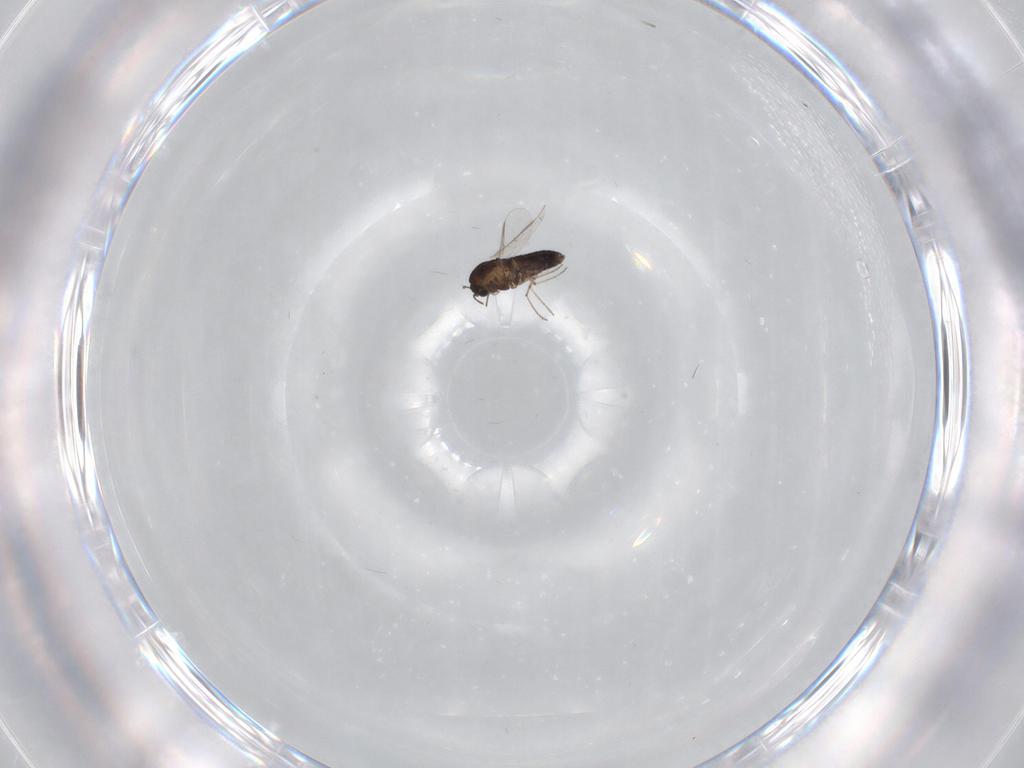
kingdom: Animalia
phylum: Arthropoda
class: Insecta
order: Diptera
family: Chironomidae
